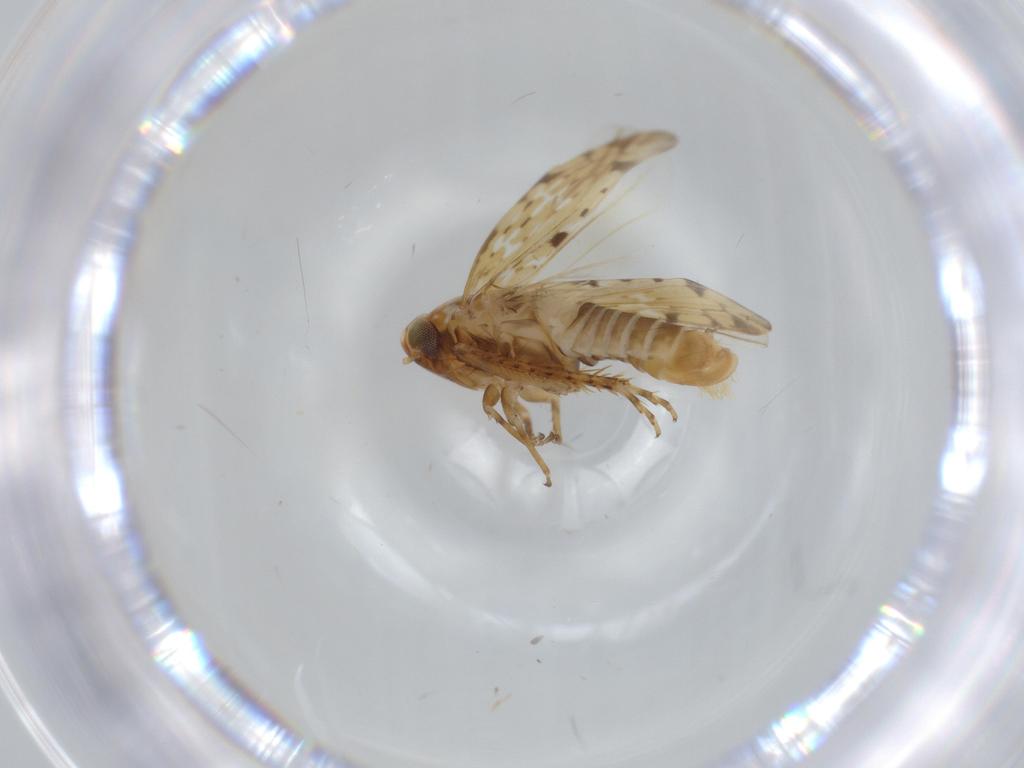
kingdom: Animalia
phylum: Arthropoda
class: Insecta
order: Hemiptera
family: Cicadellidae
